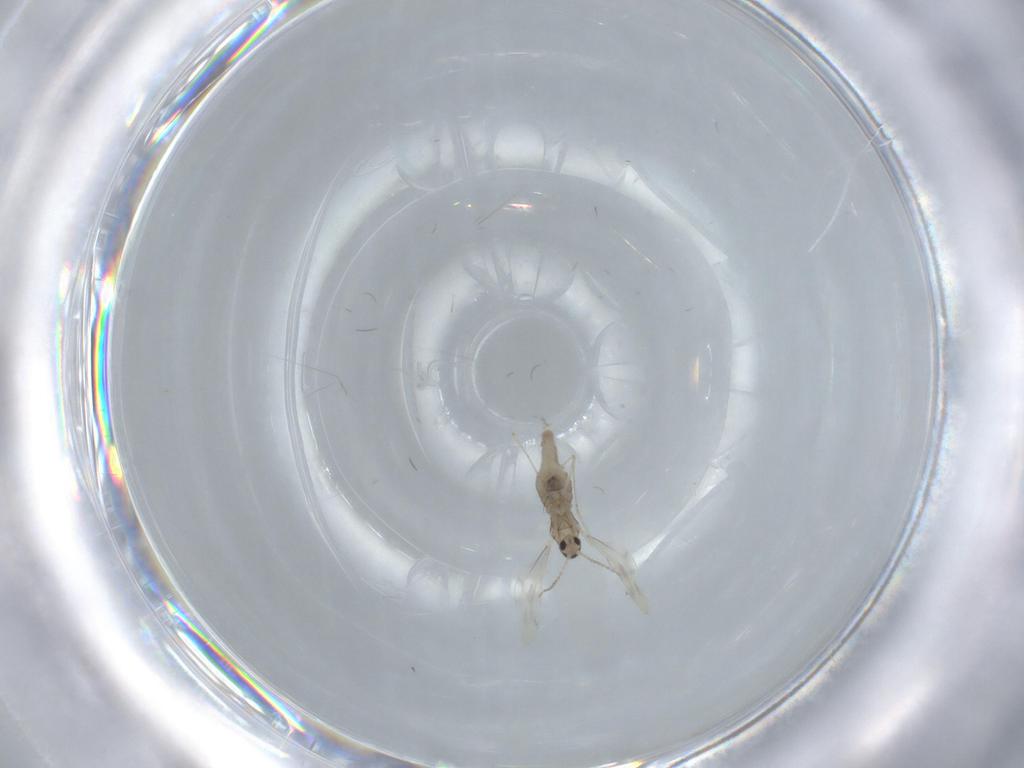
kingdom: Animalia
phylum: Arthropoda
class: Insecta
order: Diptera
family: Cecidomyiidae
